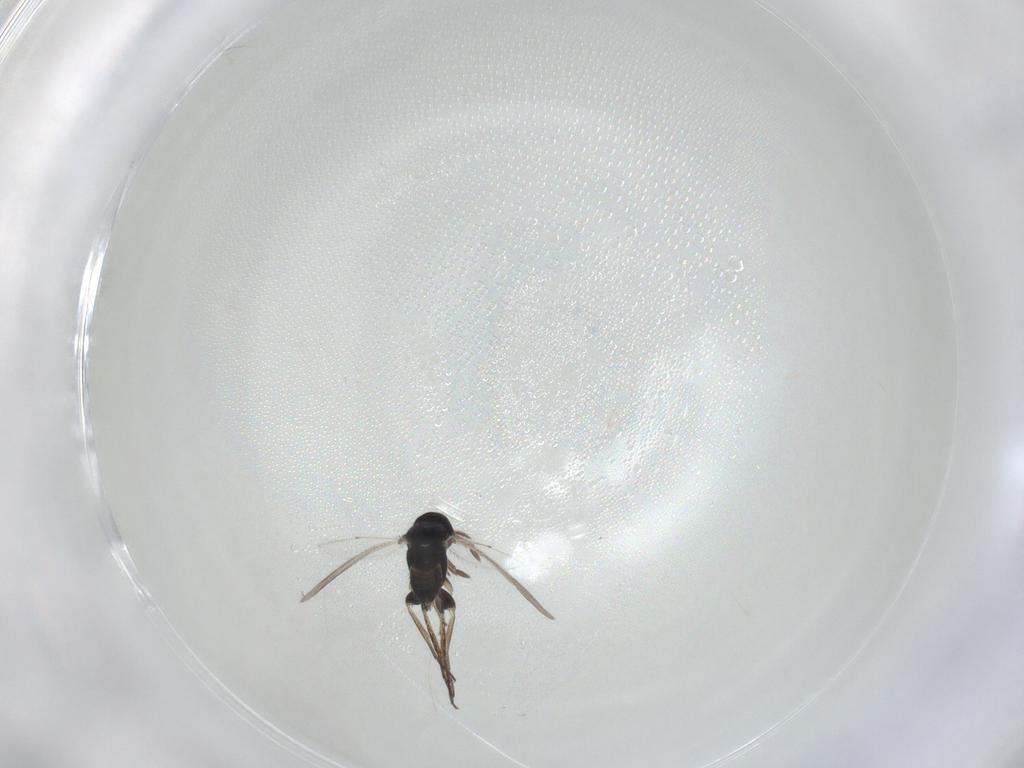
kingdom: Animalia
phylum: Arthropoda
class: Insecta
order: Hymenoptera
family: Eulophidae
